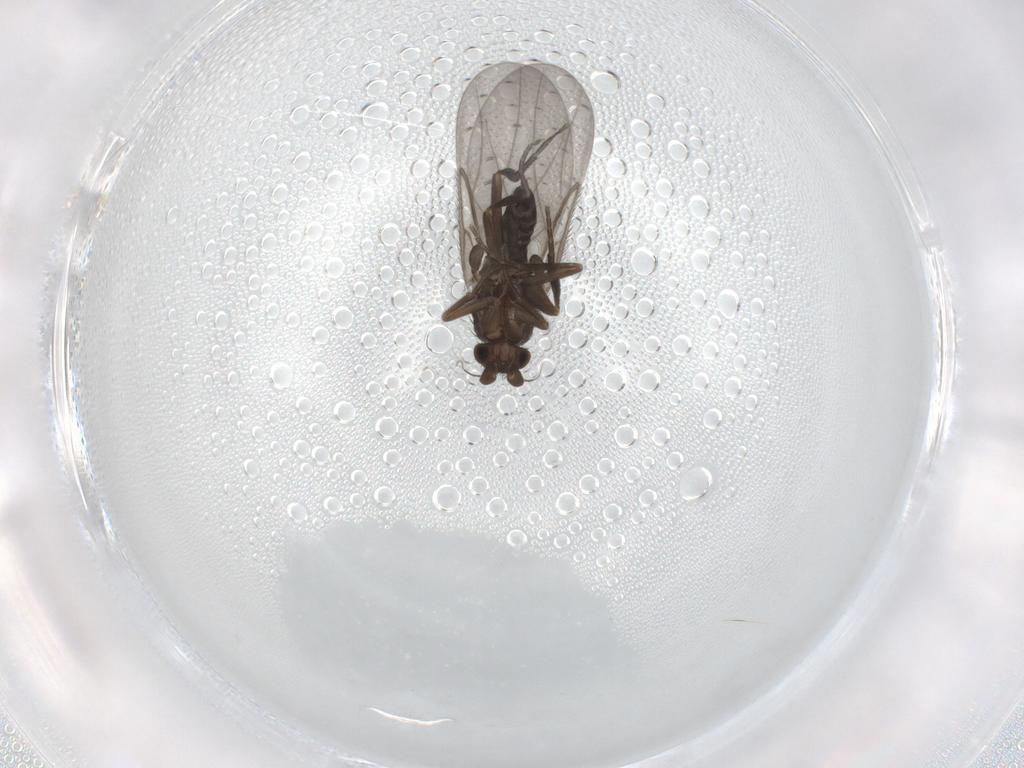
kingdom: Animalia
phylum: Arthropoda
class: Insecta
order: Diptera
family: Phoridae
